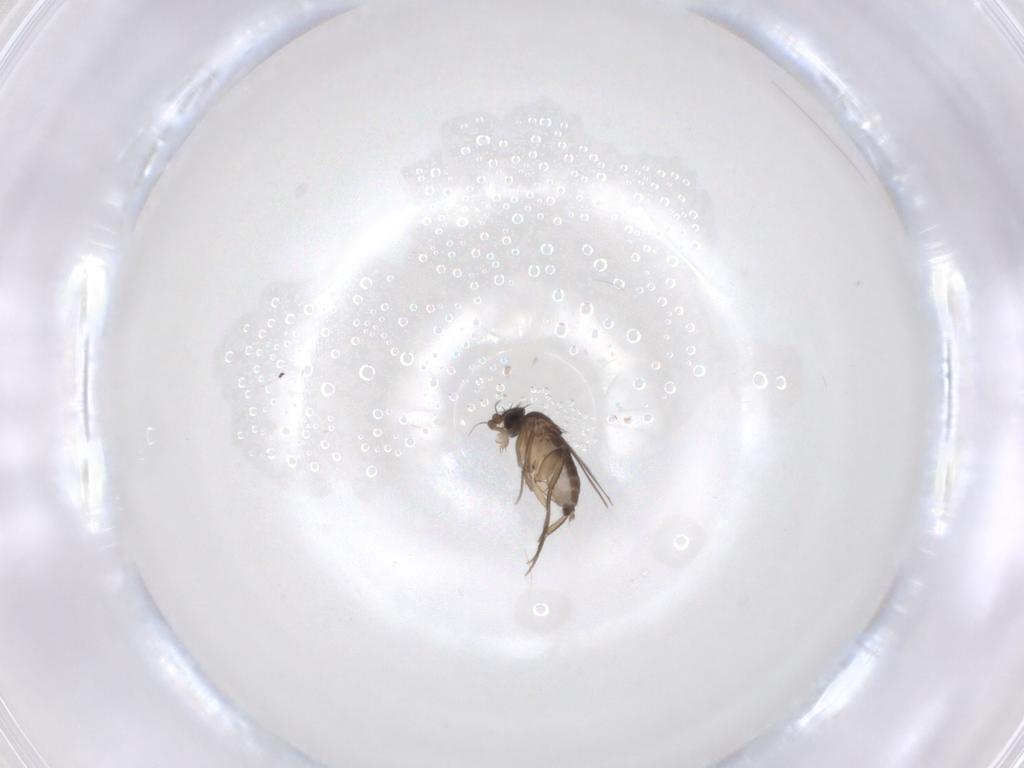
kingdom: Animalia
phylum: Arthropoda
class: Insecta
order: Diptera
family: Phoridae
